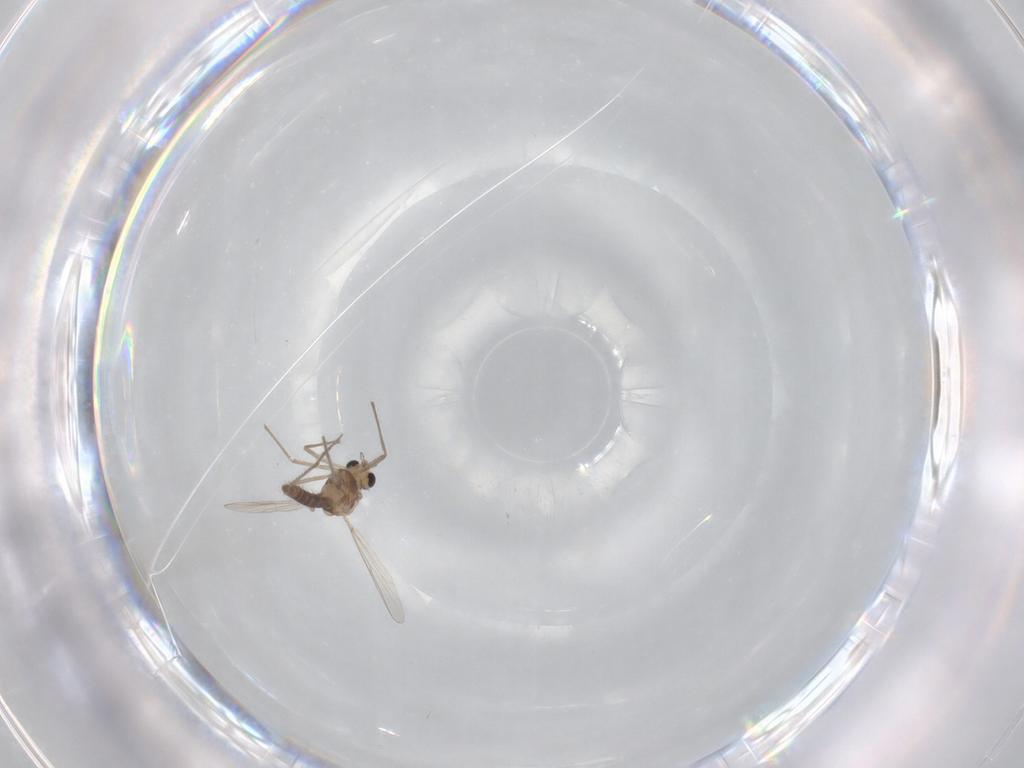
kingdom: Animalia
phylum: Arthropoda
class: Insecta
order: Diptera
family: Chironomidae
